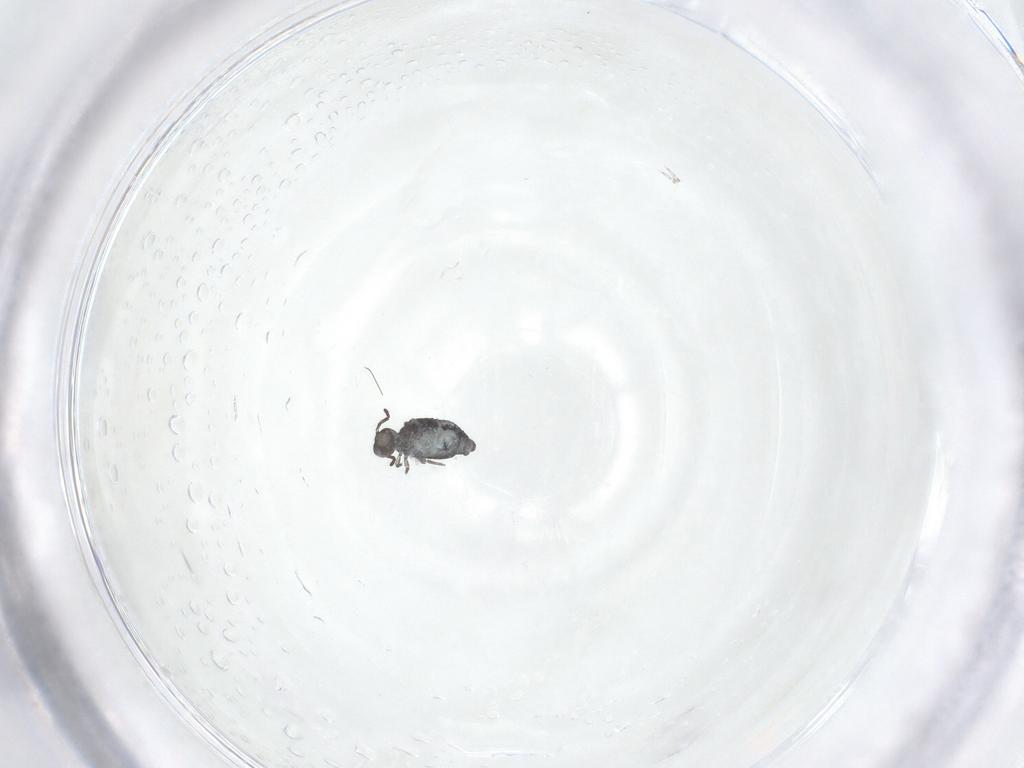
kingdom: Animalia
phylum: Arthropoda
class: Collembola
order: Symphypleona
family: Katiannidae
